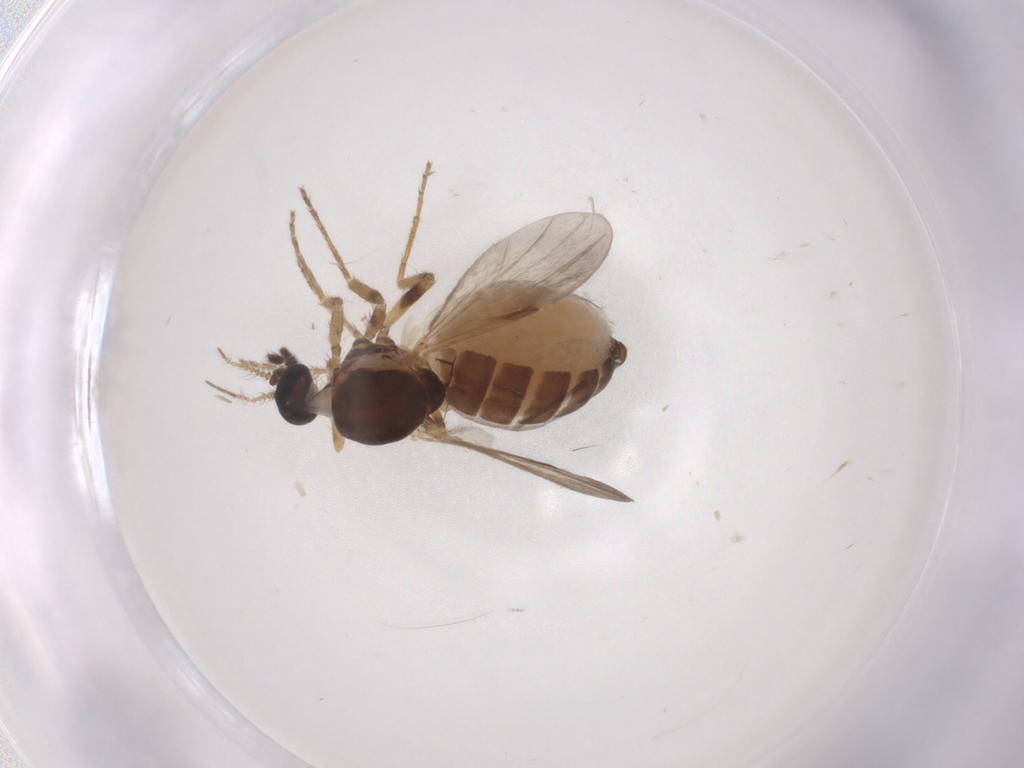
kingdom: Animalia
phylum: Arthropoda
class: Insecta
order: Diptera
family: Ceratopogonidae
